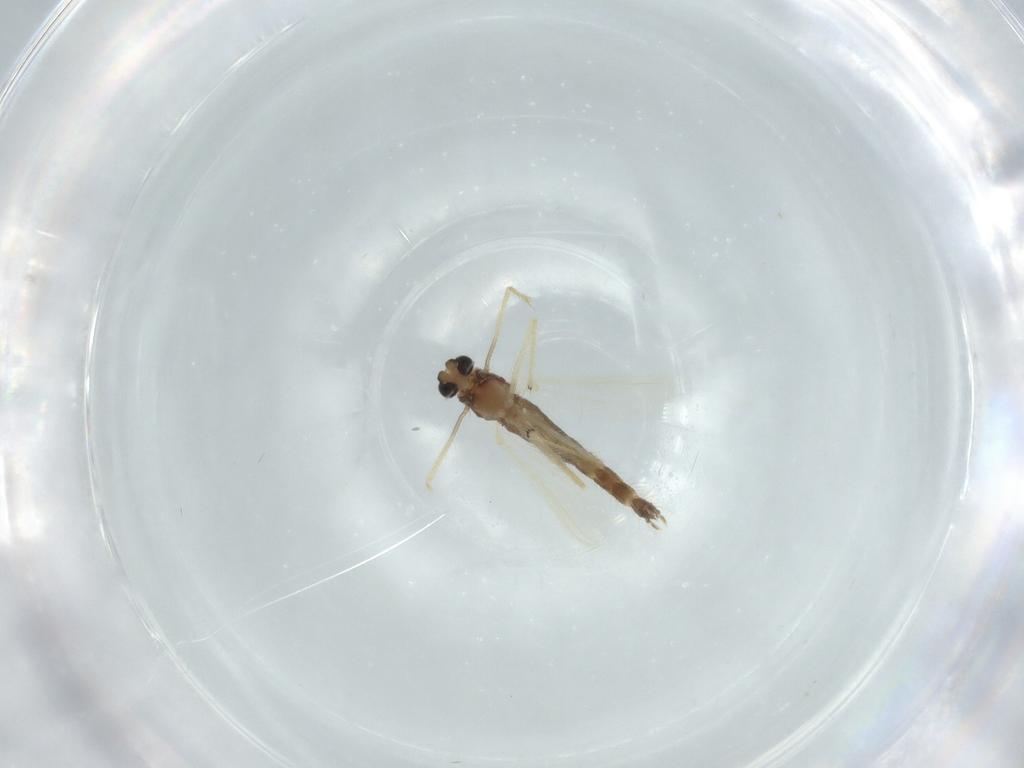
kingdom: Animalia
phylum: Arthropoda
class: Insecta
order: Diptera
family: Chironomidae
